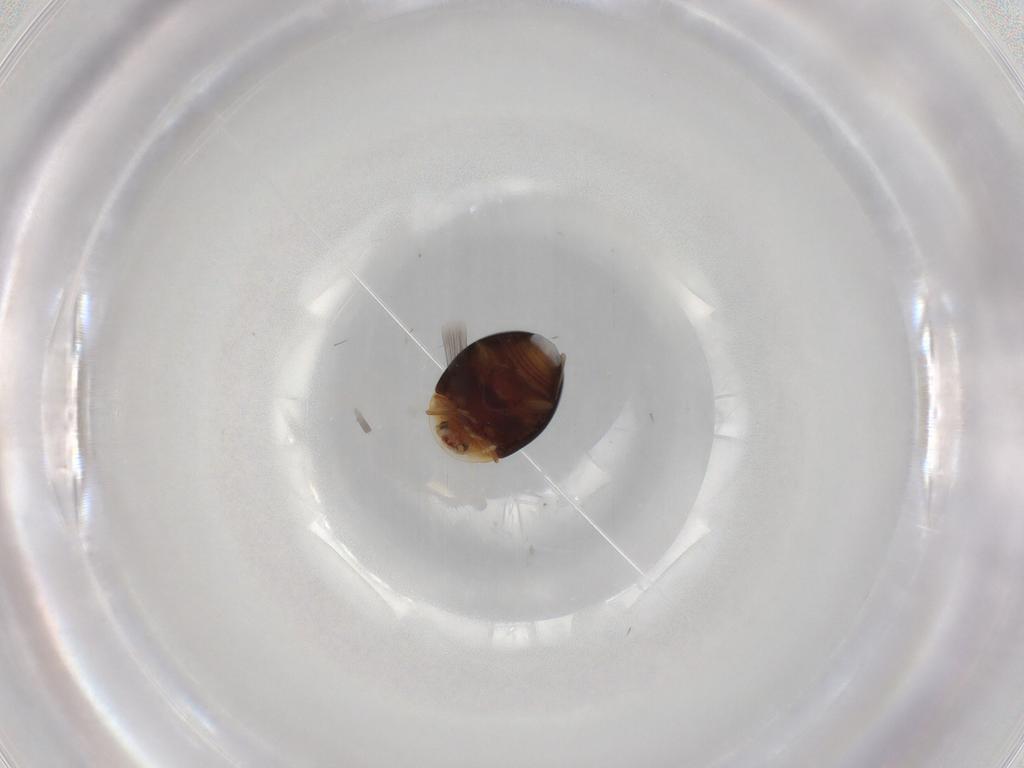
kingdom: Animalia
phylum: Arthropoda
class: Insecta
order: Coleoptera
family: Corylophidae
